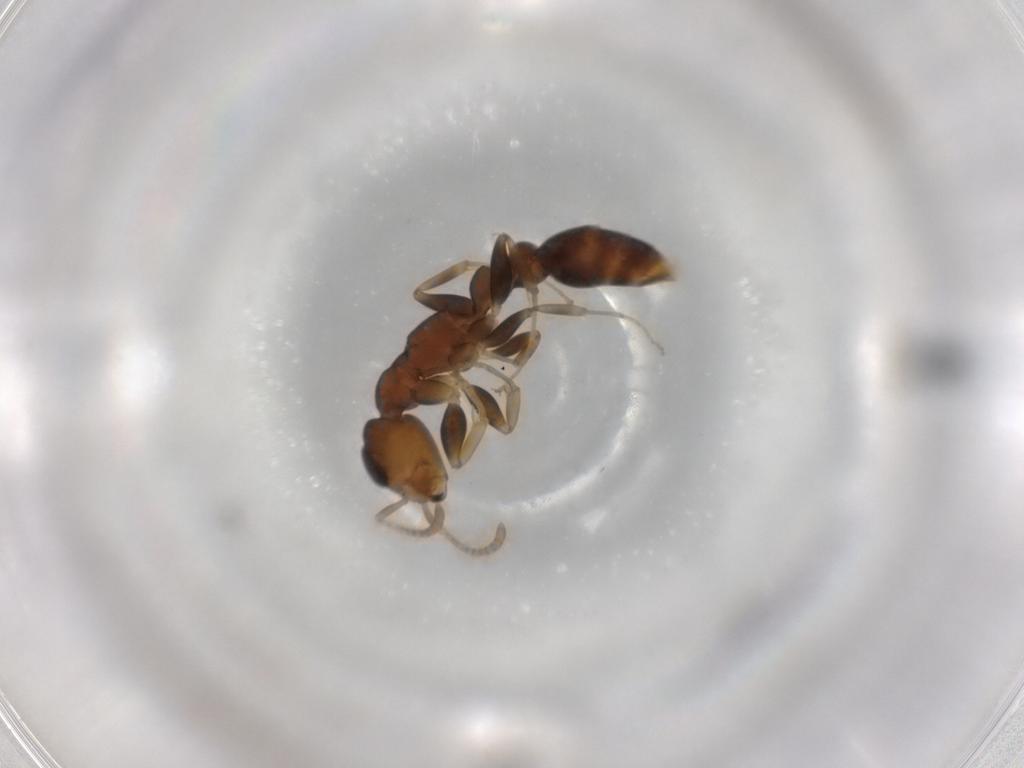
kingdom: Animalia
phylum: Arthropoda
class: Insecta
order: Hymenoptera
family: Formicidae
